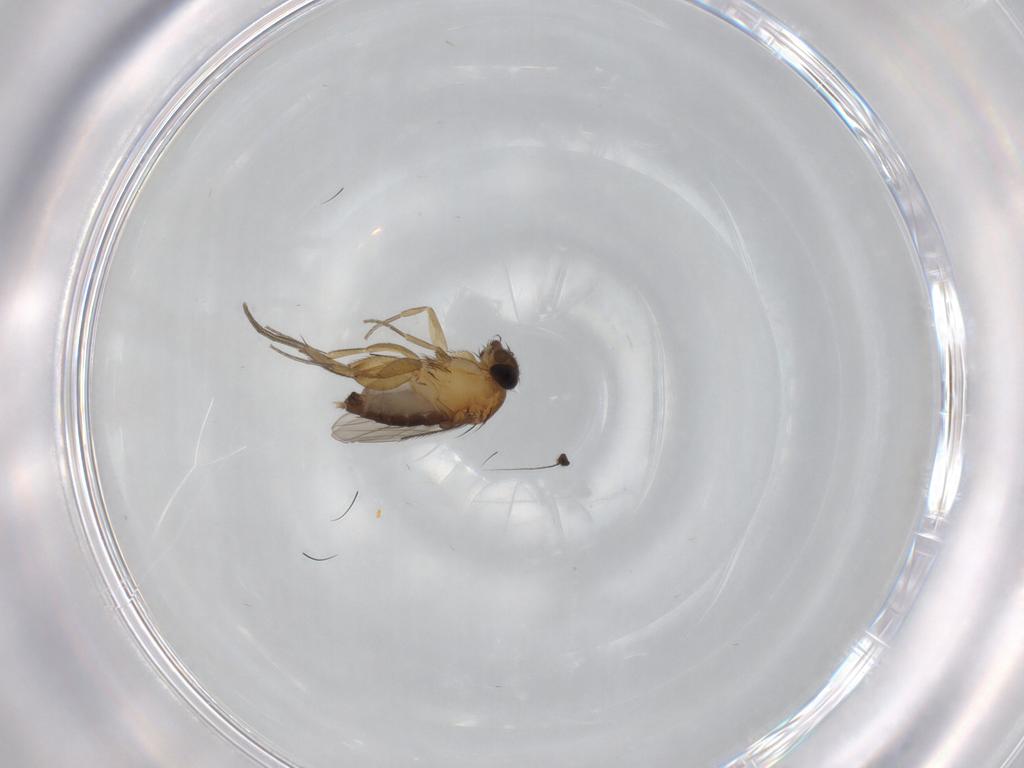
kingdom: Animalia
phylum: Arthropoda
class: Insecta
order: Diptera
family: Phoridae
